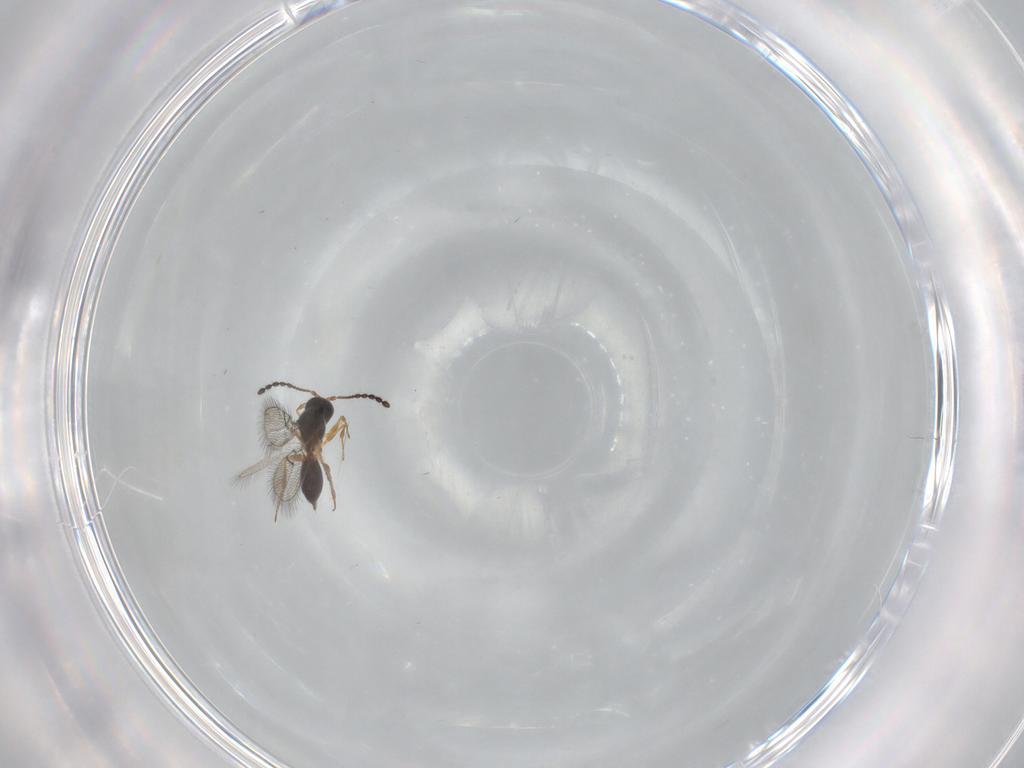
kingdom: Animalia
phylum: Arthropoda
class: Insecta
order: Hymenoptera
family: Figitidae
